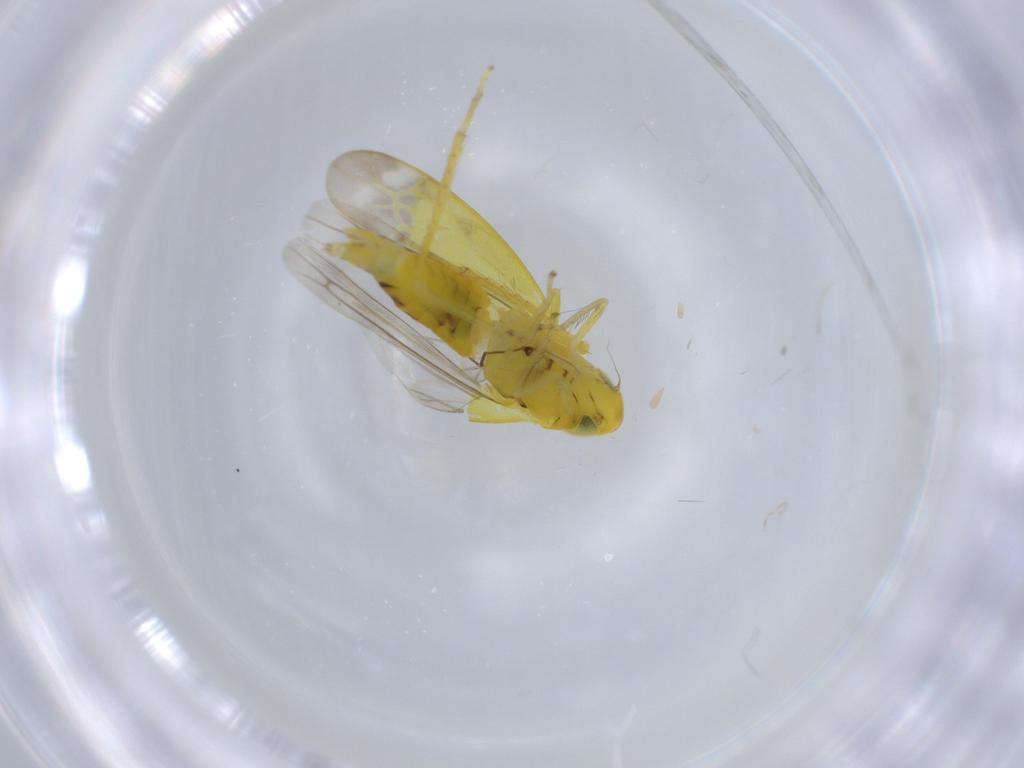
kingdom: Animalia
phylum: Arthropoda
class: Insecta
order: Hemiptera
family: Cicadellidae
